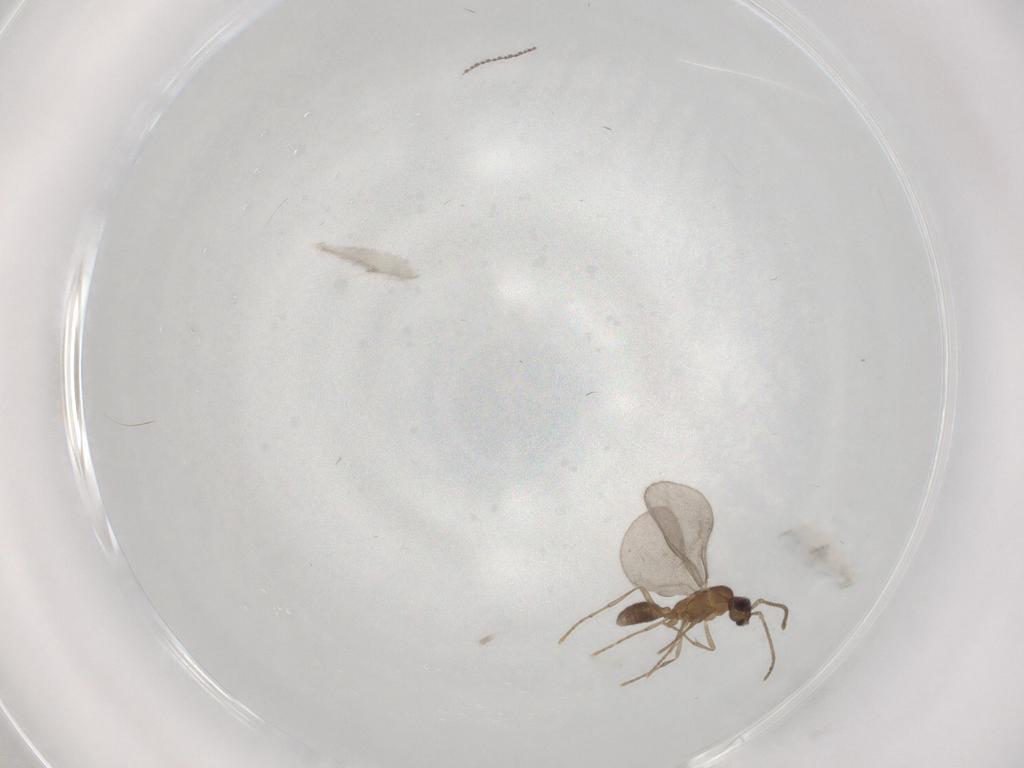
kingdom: Animalia
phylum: Arthropoda
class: Insecta
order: Hymenoptera
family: Formicidae
